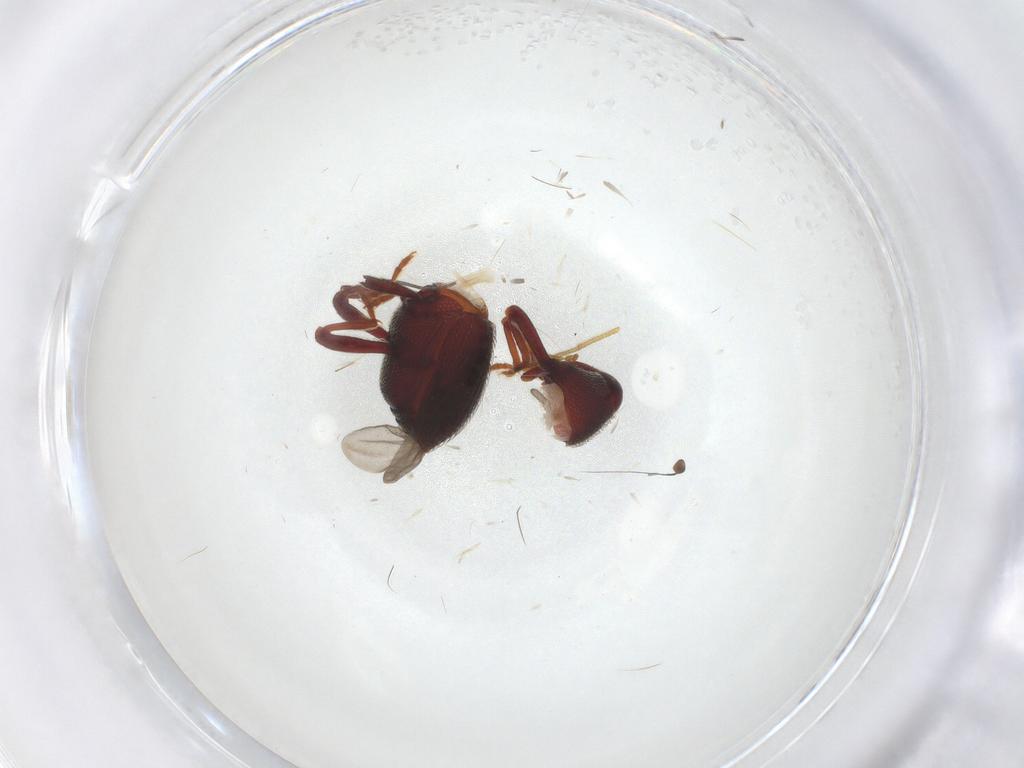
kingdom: Animalia
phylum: Arthropoda
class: Insecta
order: Coleoptera
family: Curculionidae
